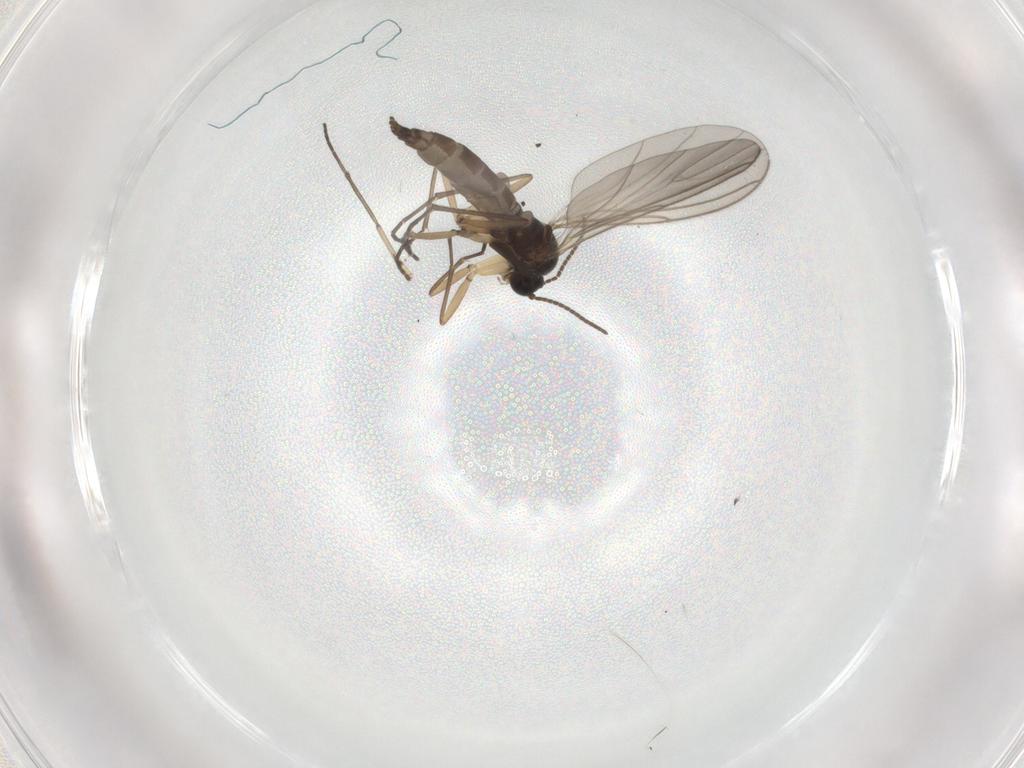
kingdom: Animalia
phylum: Arthropoda
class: Insecta
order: Diptera
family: Sciaridae
